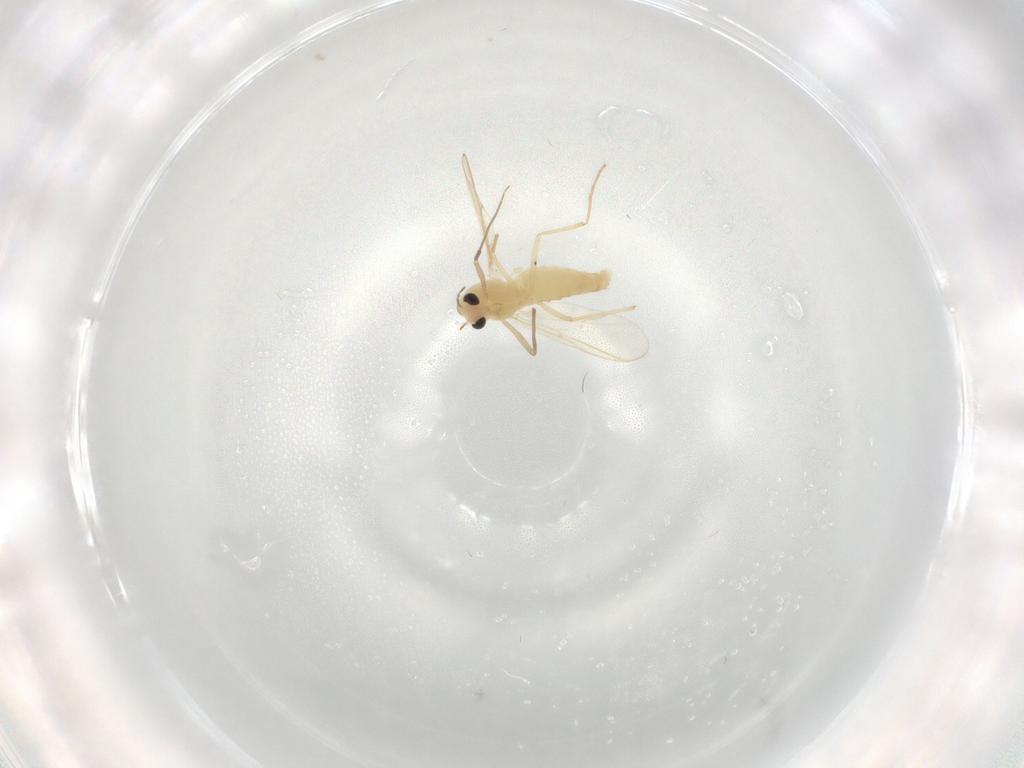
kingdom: Animalia
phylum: Arthropoda
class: Insecta
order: Diptera
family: Chironomidae
